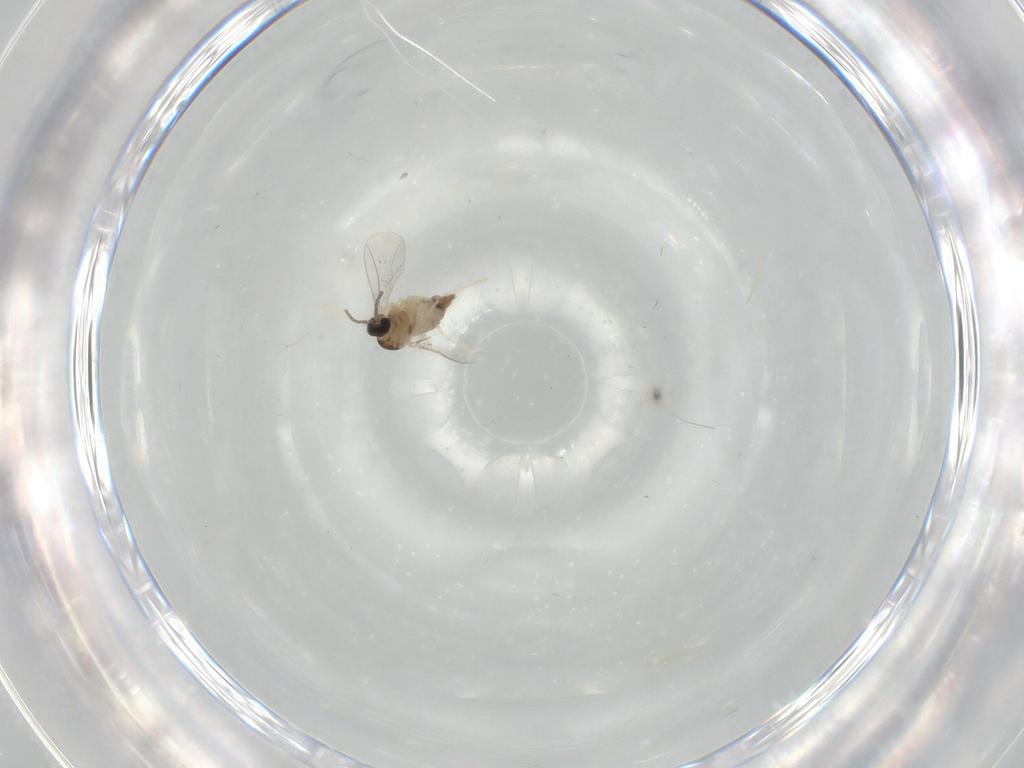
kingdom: Animalia
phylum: Arthropoda
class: Insecta
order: Diptera
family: Cecidomyiidae
